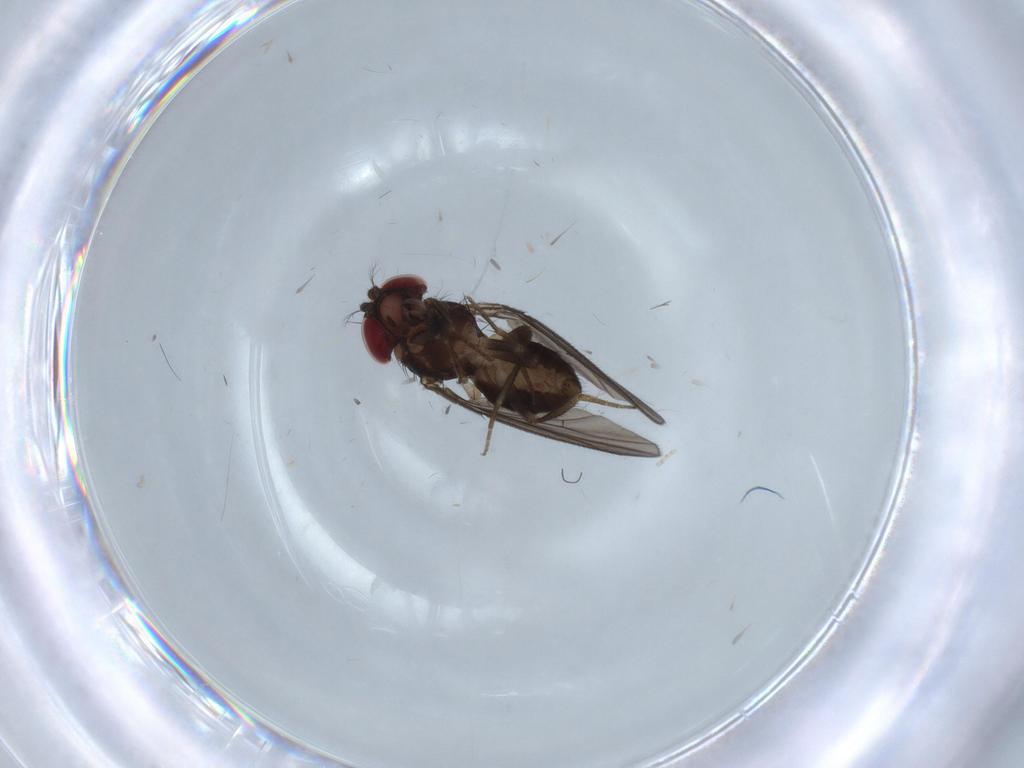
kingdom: Animalia
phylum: Arthropoda
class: Insecta
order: Diptera
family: Drosophilidae
